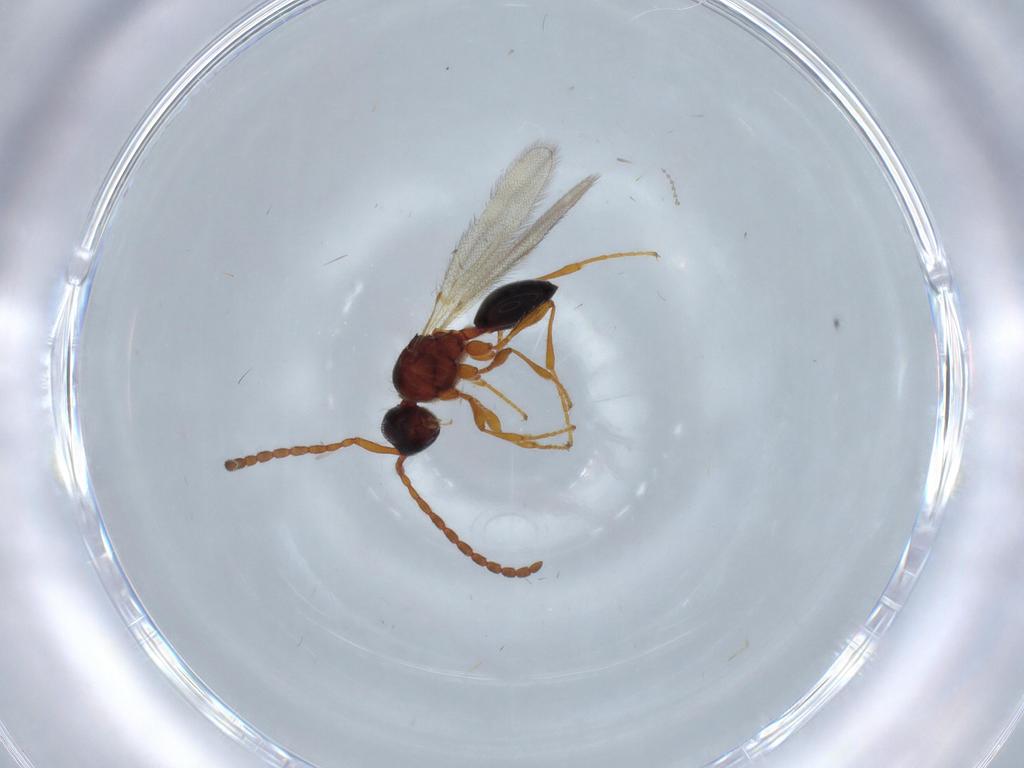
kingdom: Animalia
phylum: Arthropoda
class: Insecta
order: Hymenoptera
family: Diapriidae
